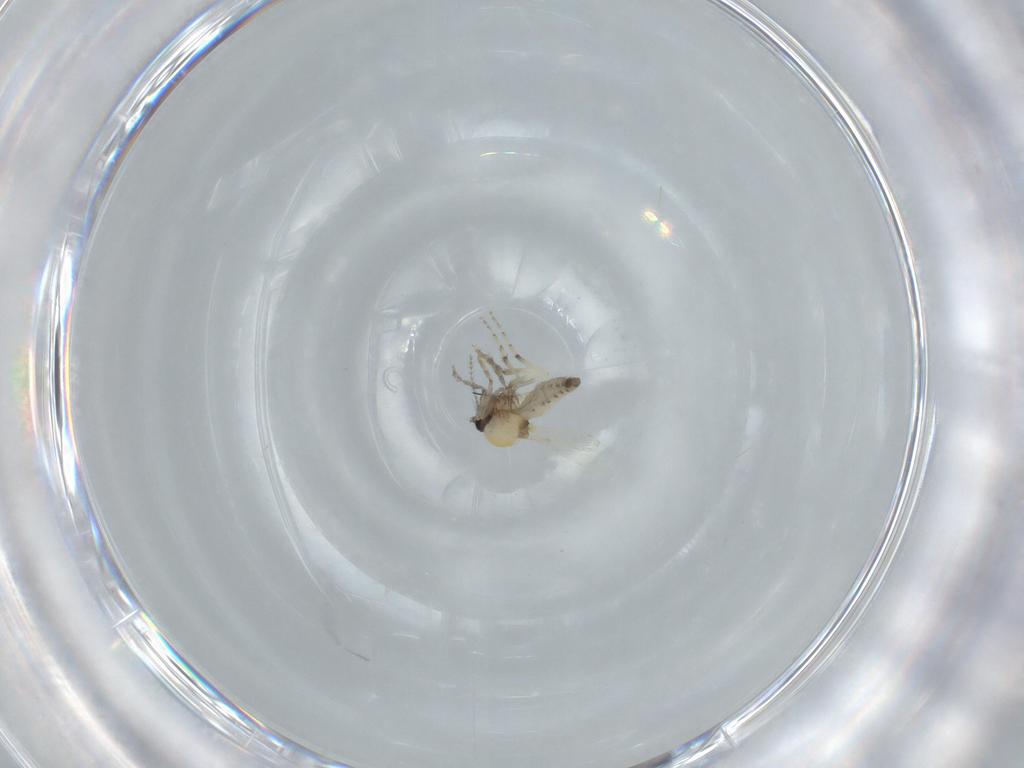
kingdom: Animalia
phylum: Arthropoda
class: Insecta
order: Diptera
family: Ceratopogonidae
